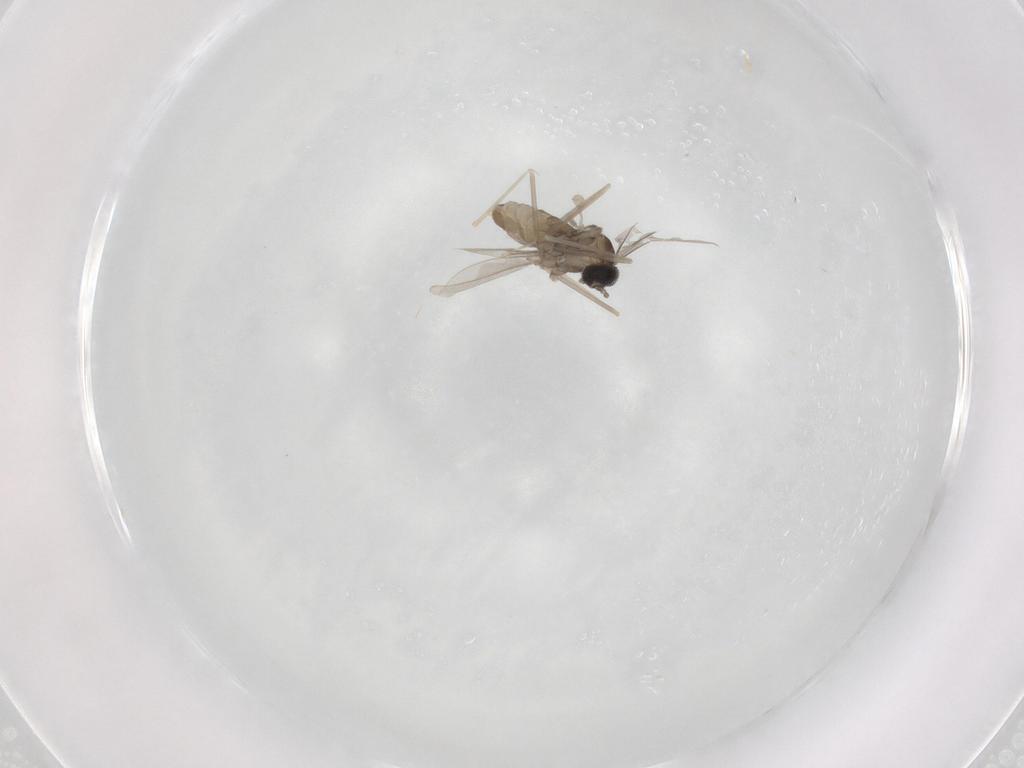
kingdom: Animalia
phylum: Arthropoda
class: Insecta
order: Diptera
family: Cecidomyiidae
